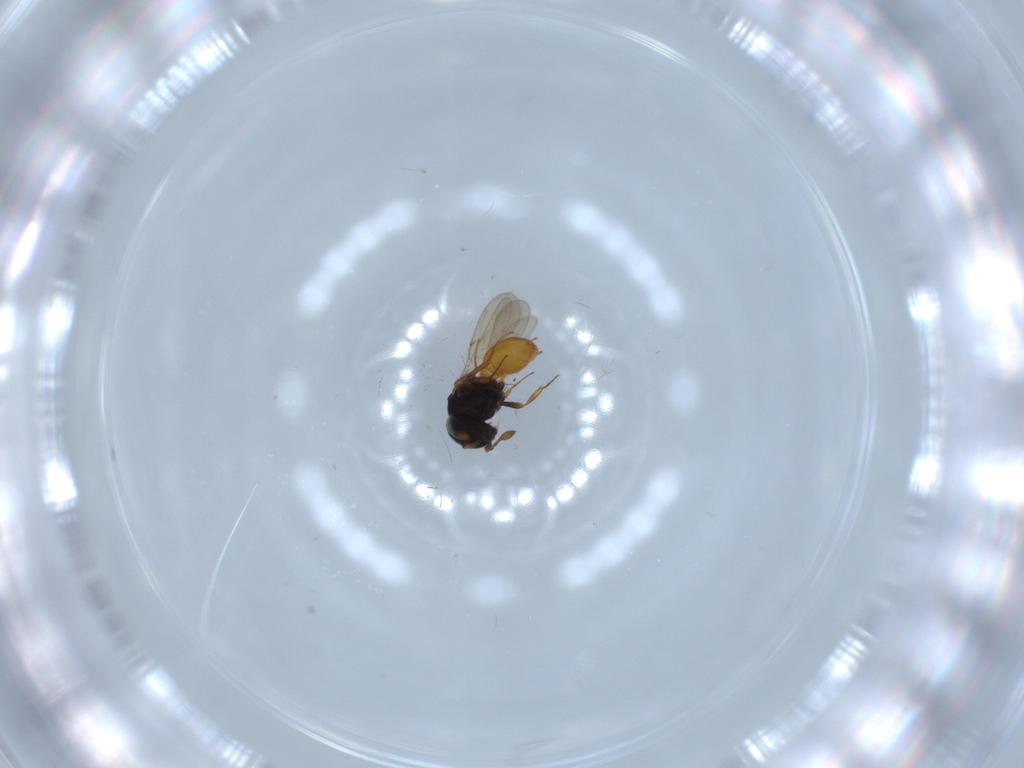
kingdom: Animalia
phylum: Arthropoda
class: Insecta
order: Hymenoptera
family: Scelionidae
